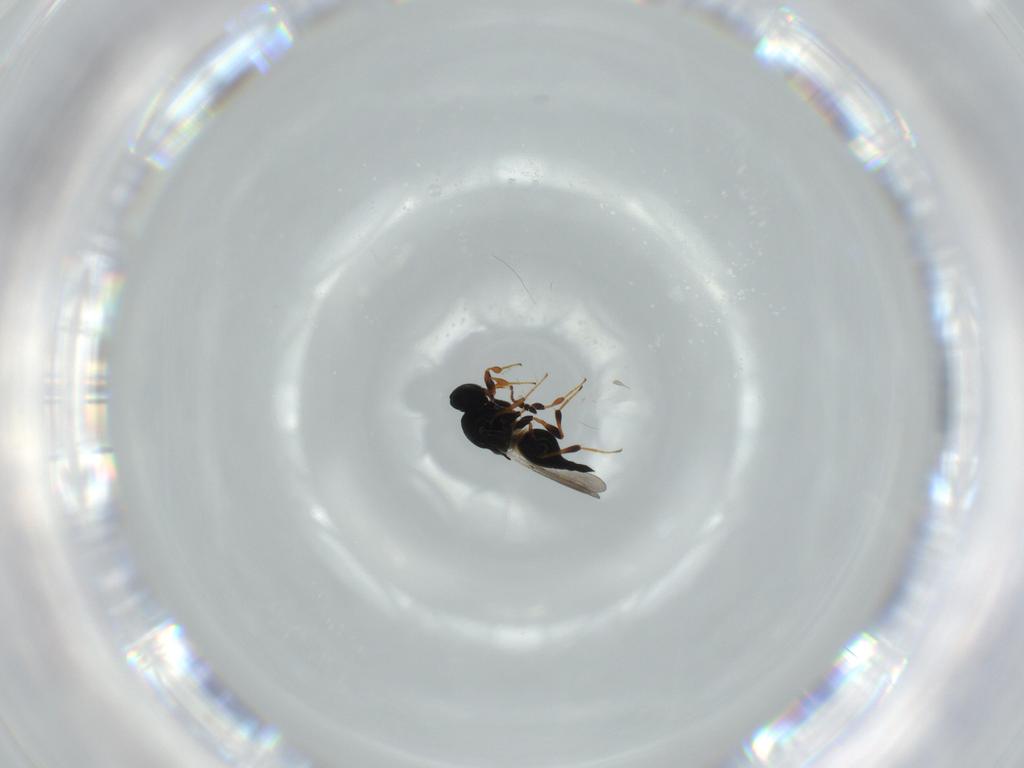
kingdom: Animalia
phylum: Arthropoda
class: Insecta
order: Hymenoptera
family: Platygastridae
